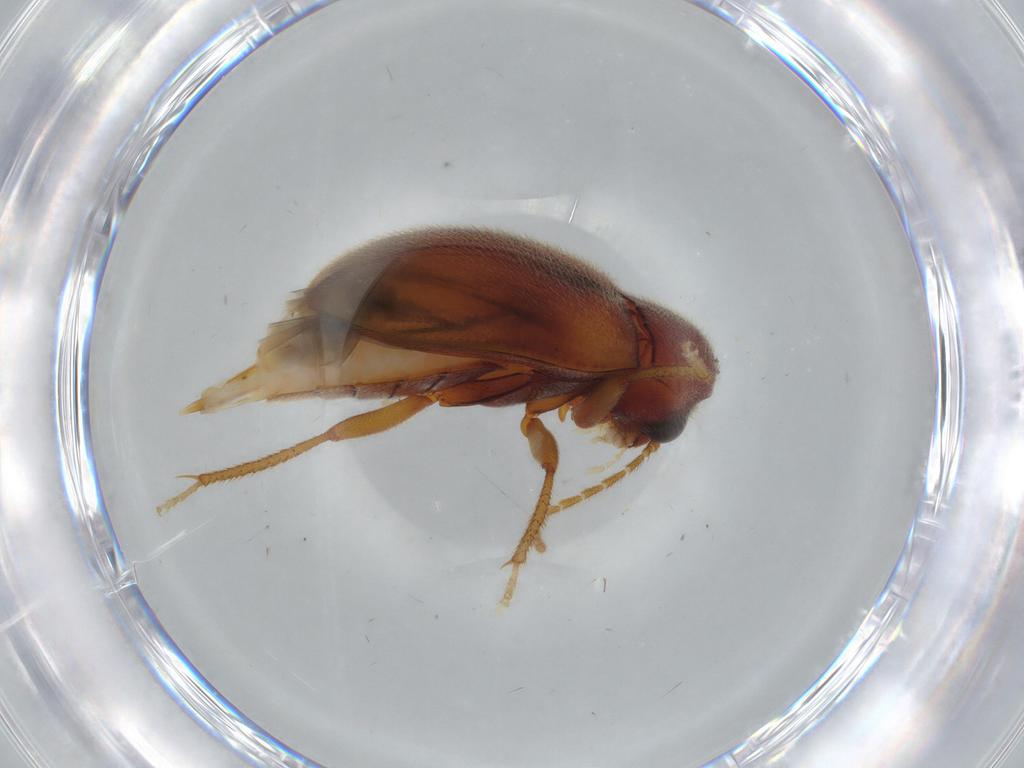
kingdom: Animalia
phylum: Arthropoda
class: Insecta
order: Coleoptera
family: Ptilodactylidae
